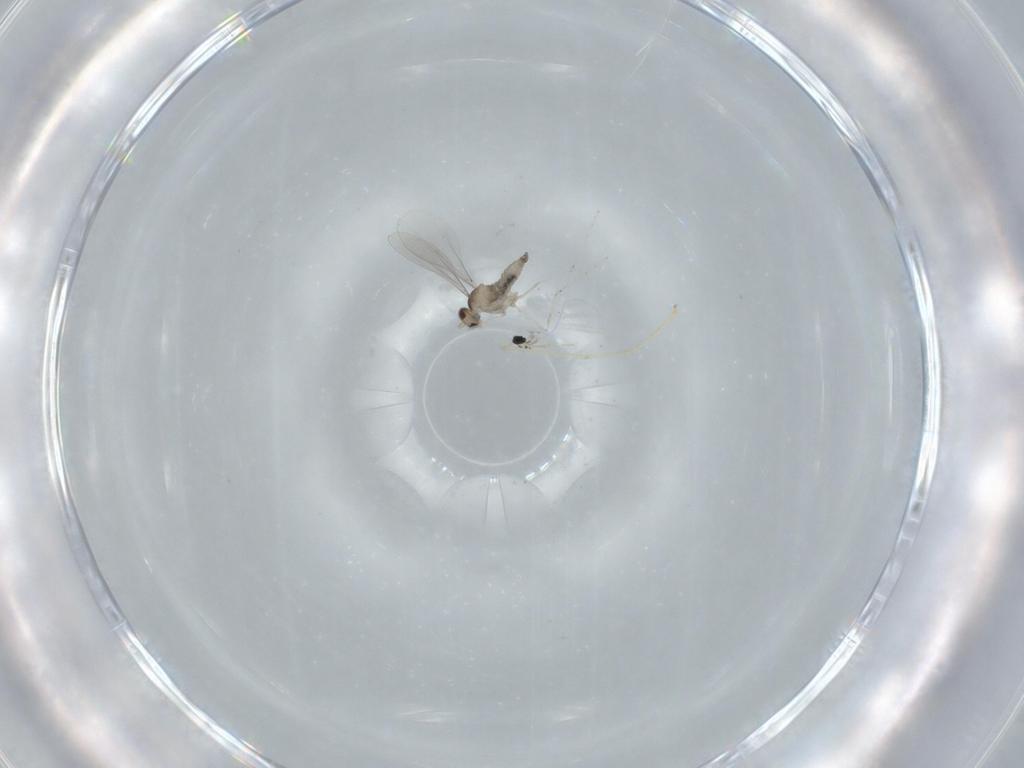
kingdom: Animalia
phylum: Arthropoda
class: Insecta
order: Diptera
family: Cecidomyiidae
